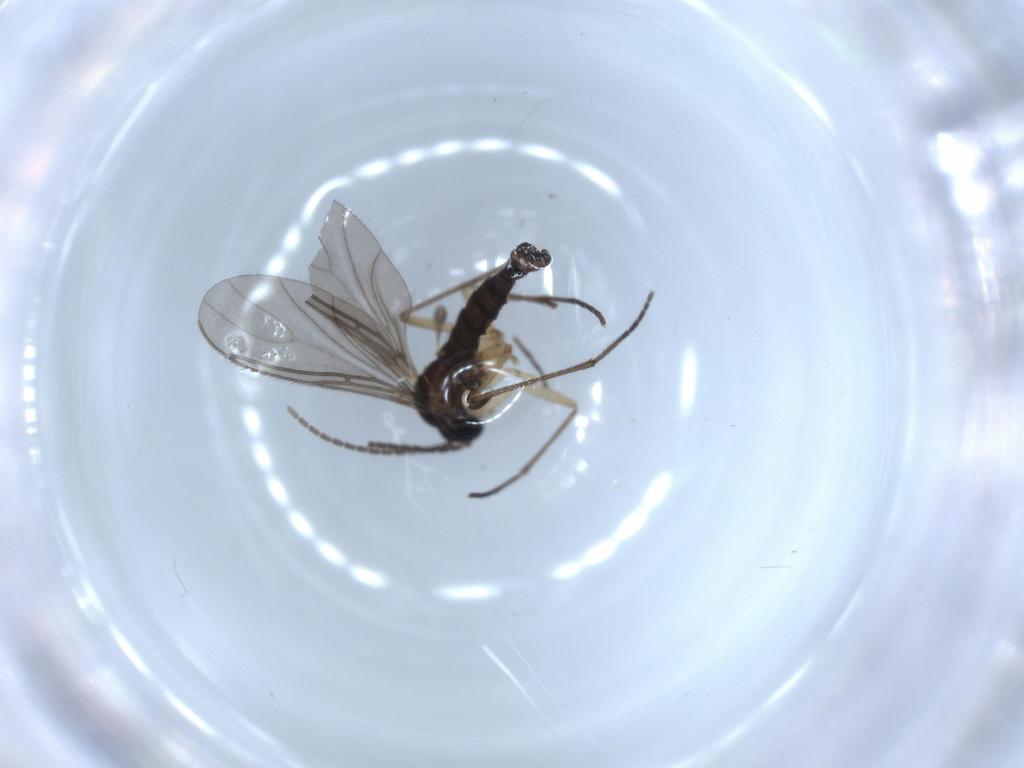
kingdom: Animalia
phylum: Arthropoda
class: Insecta
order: Diptera
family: Sciaridae
